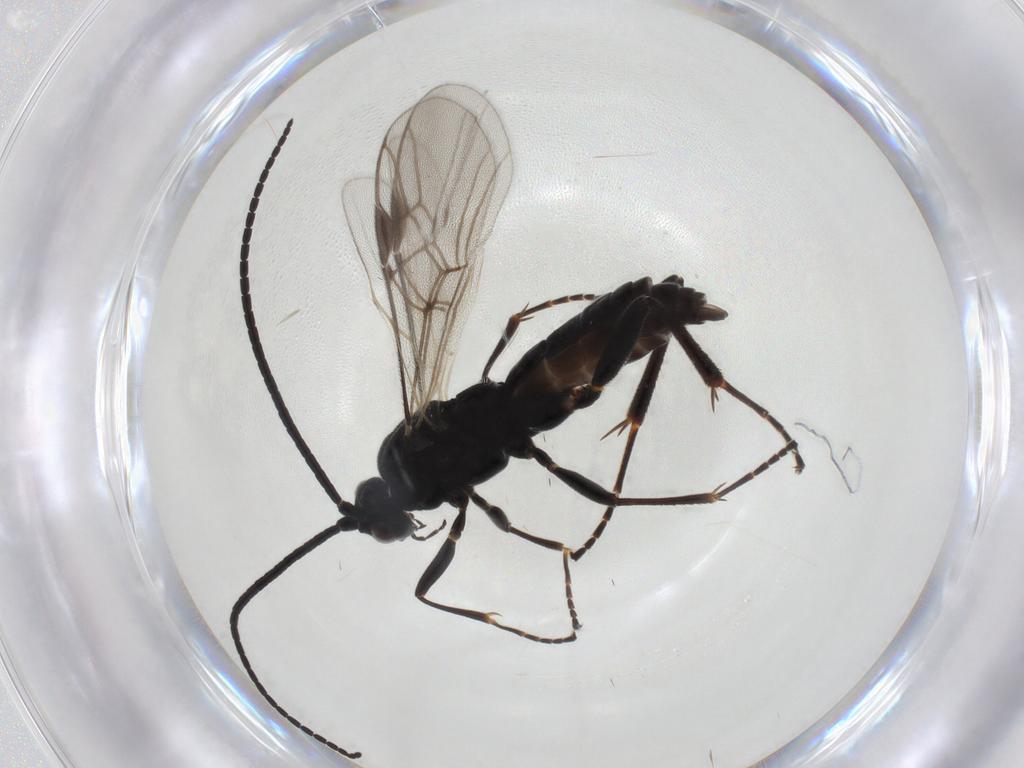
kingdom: Animalia
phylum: Arthropoda
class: Insecta
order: Hymenoptera
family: Braconidae
